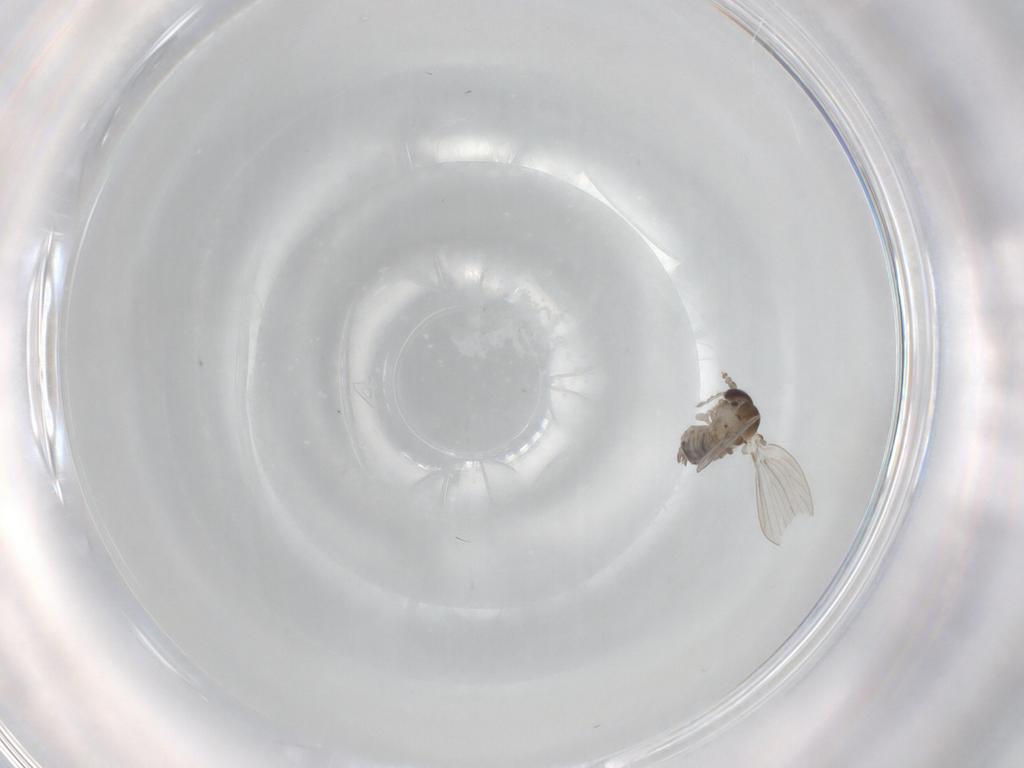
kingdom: Animalia
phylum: Arthropoda
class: Insecta
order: Diptera
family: Psychodidae
